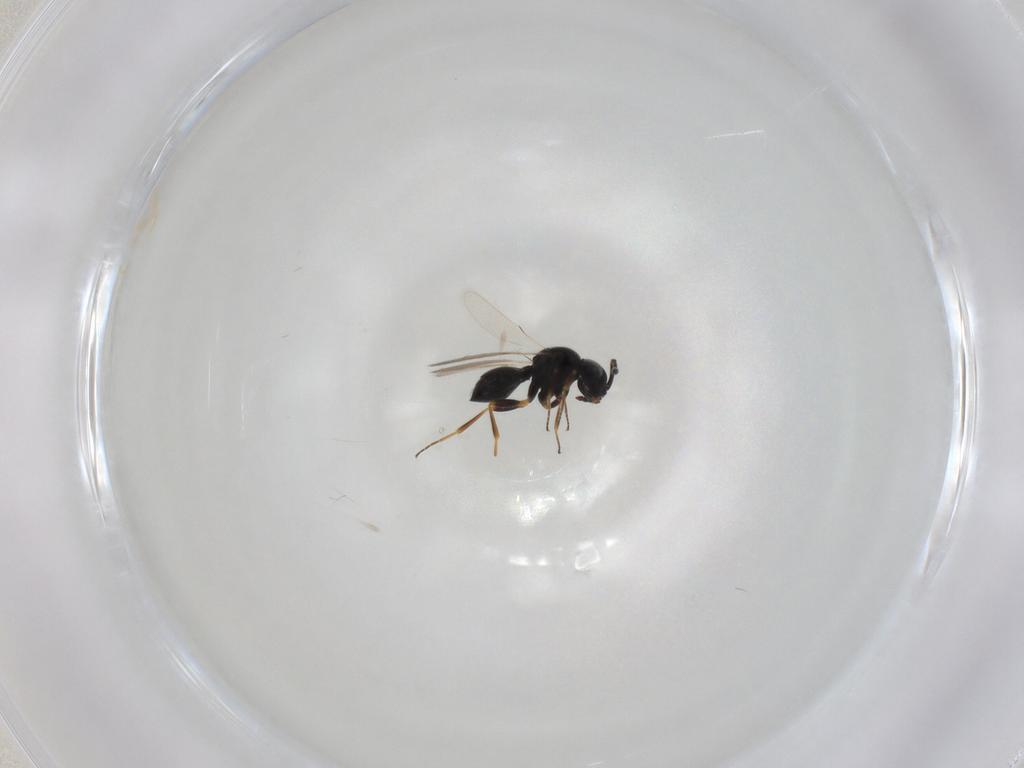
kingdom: Animalia
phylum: Arthropoda
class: Insecta
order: Hymenoptera
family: Scelionidae
